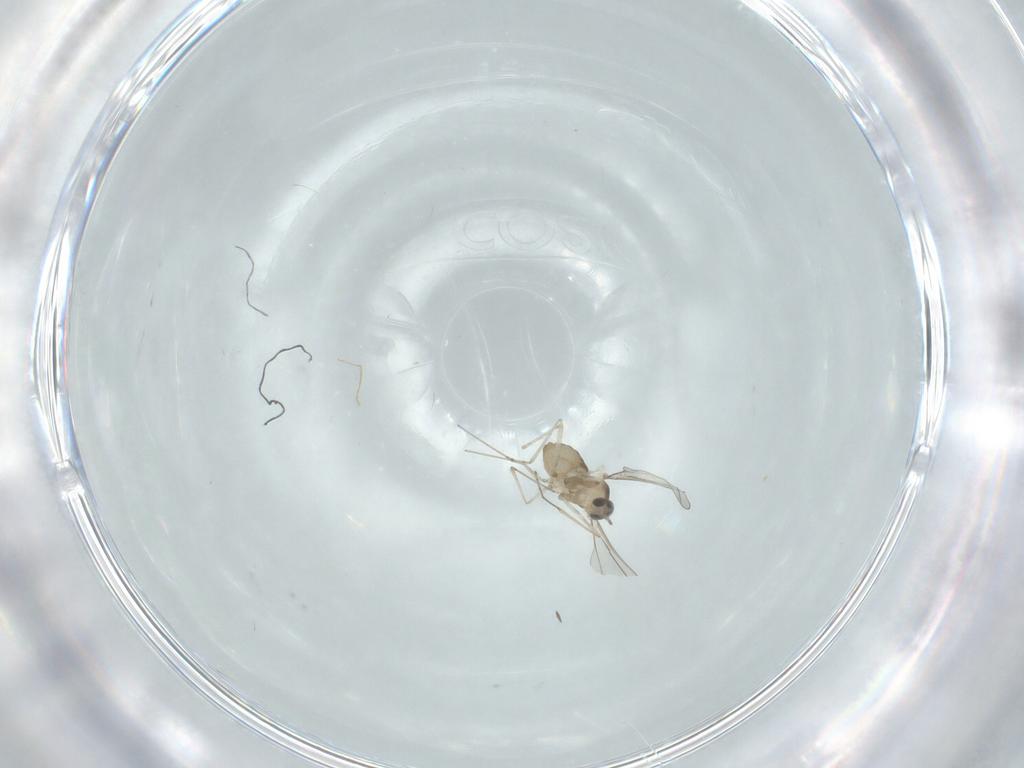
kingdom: Animalia
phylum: Arthropoda
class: Insecta
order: Diptera
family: Cecidomyiidae
